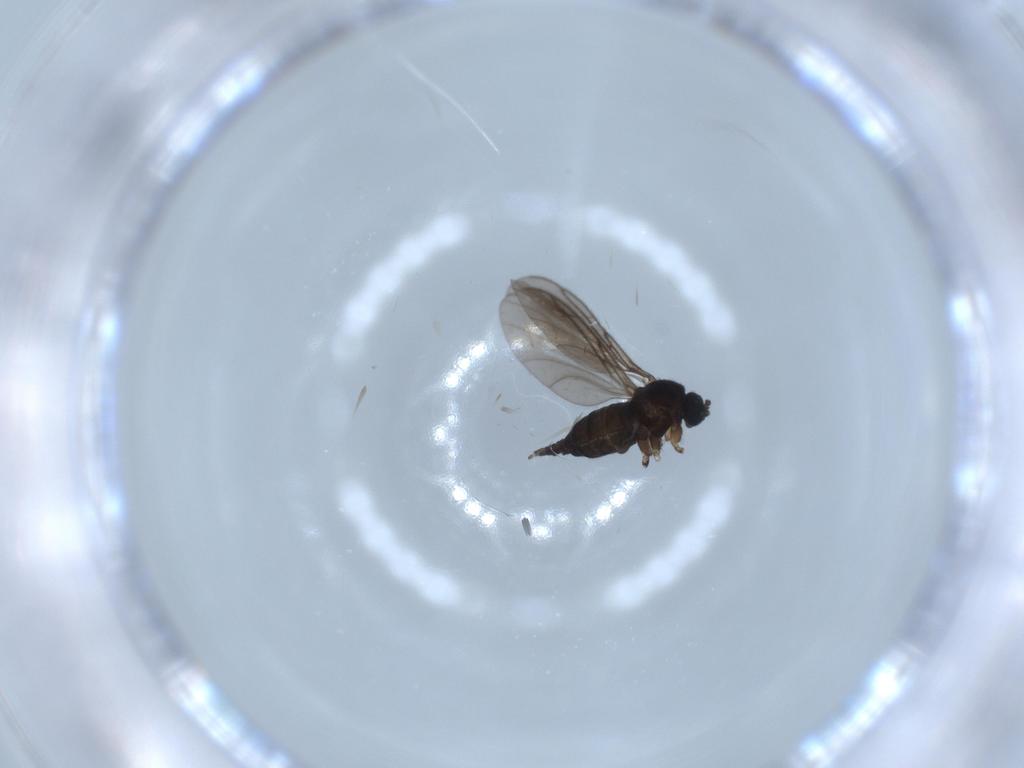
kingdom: Animalia
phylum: Arthropoda
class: Insecta
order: Diptera
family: Sciaridae
